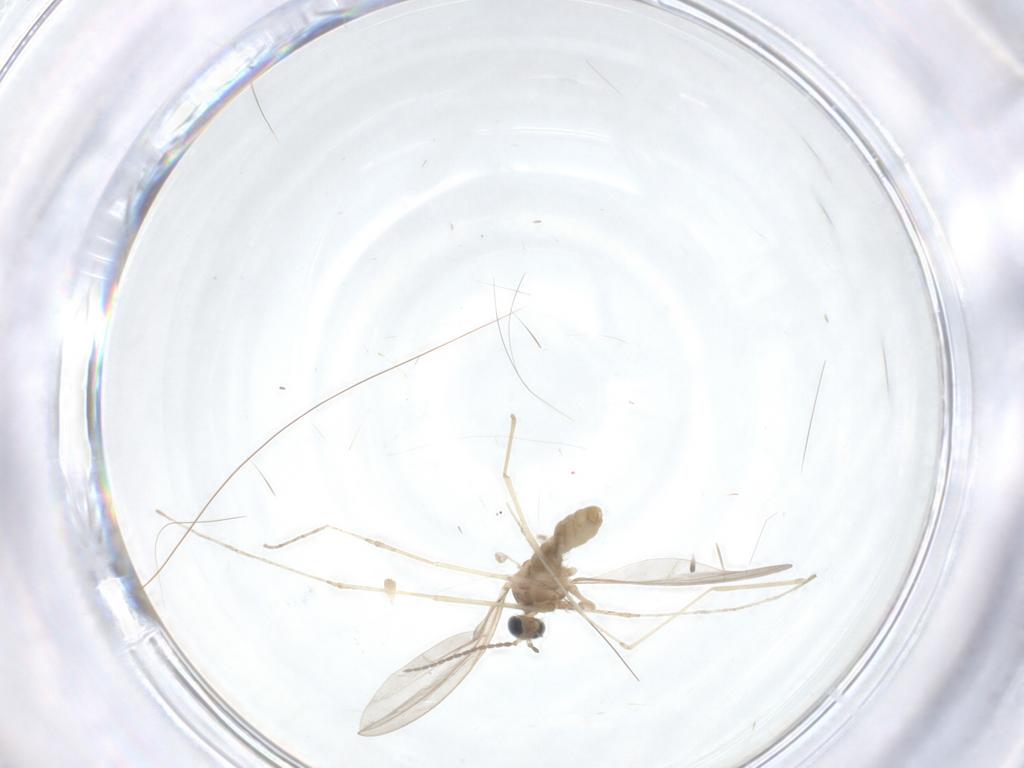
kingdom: Animalia
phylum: Arthropoda
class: Insecta
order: Diptera
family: Cecidomyiidae
